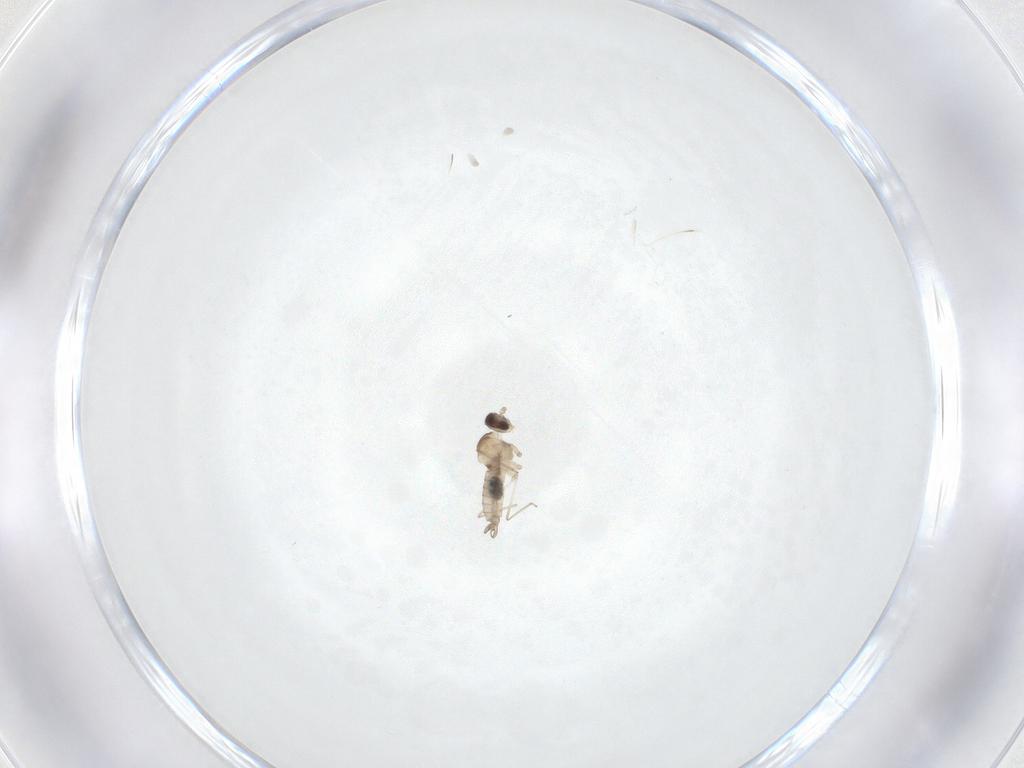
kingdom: Animalia
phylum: Arthropoda
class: Insecta
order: Diptera
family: Cecidomyiidae
